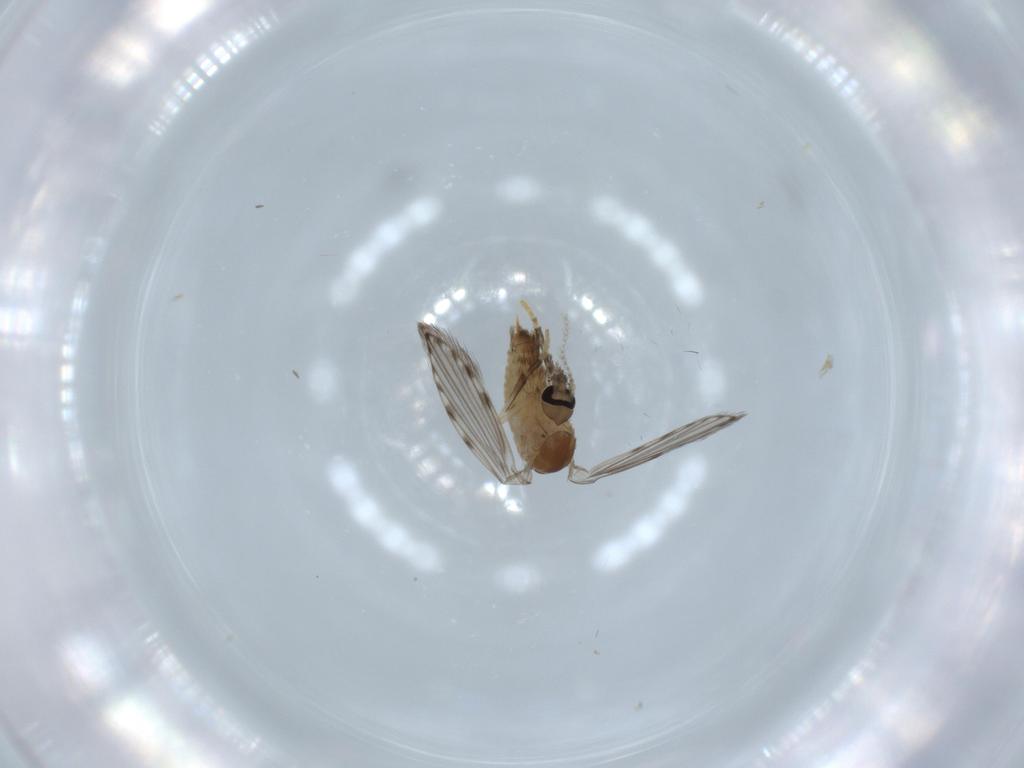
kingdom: Animalia
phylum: Arthropoda
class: Insecta
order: Diptera
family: Psychodidae
